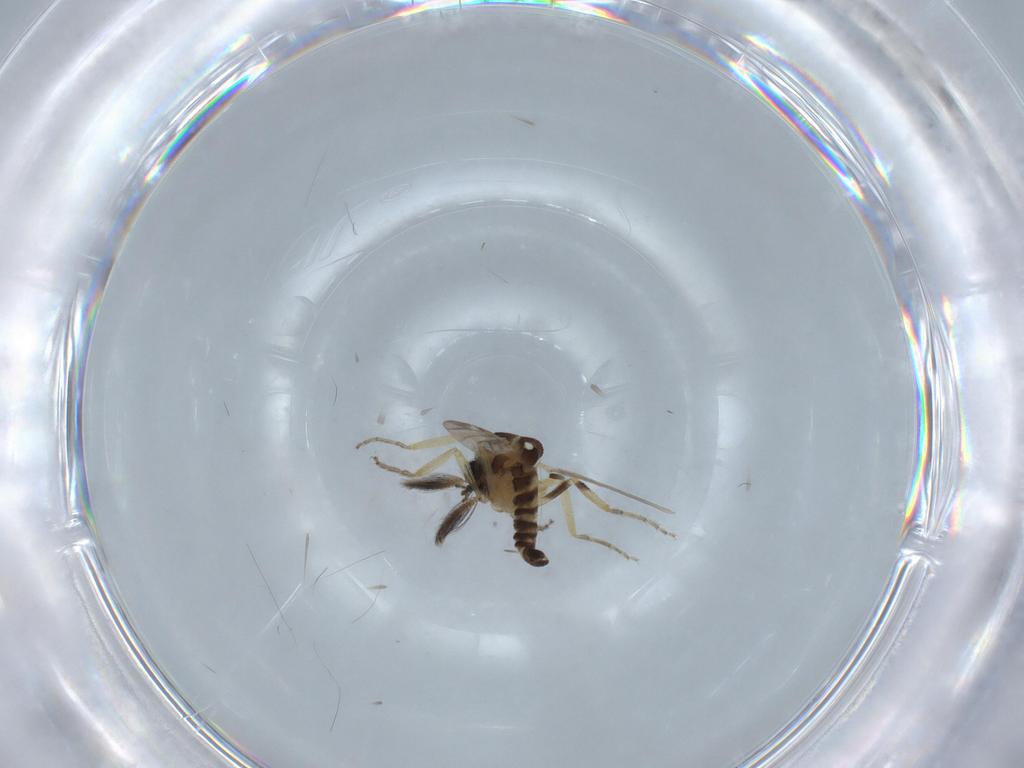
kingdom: Animalia
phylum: Arthropoda
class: Insecta
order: Diptera
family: Ceratopogonidae
